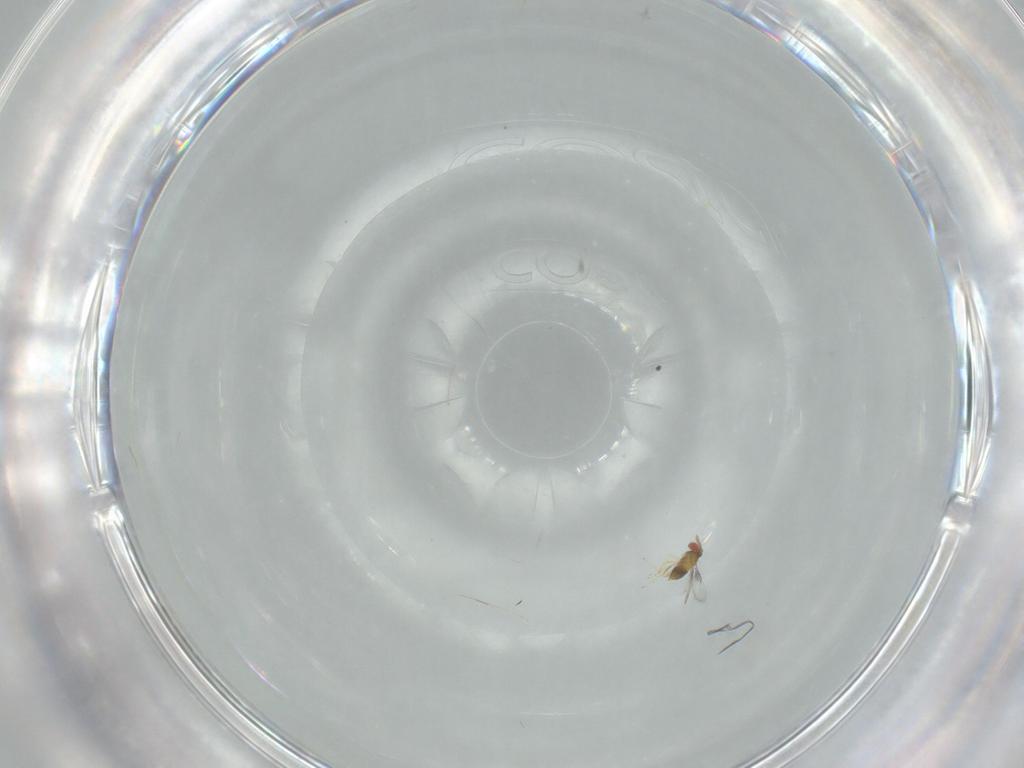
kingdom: Animalia
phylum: Arthropoda
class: Insecta
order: Hymenoptera
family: Trichogrammatidae
